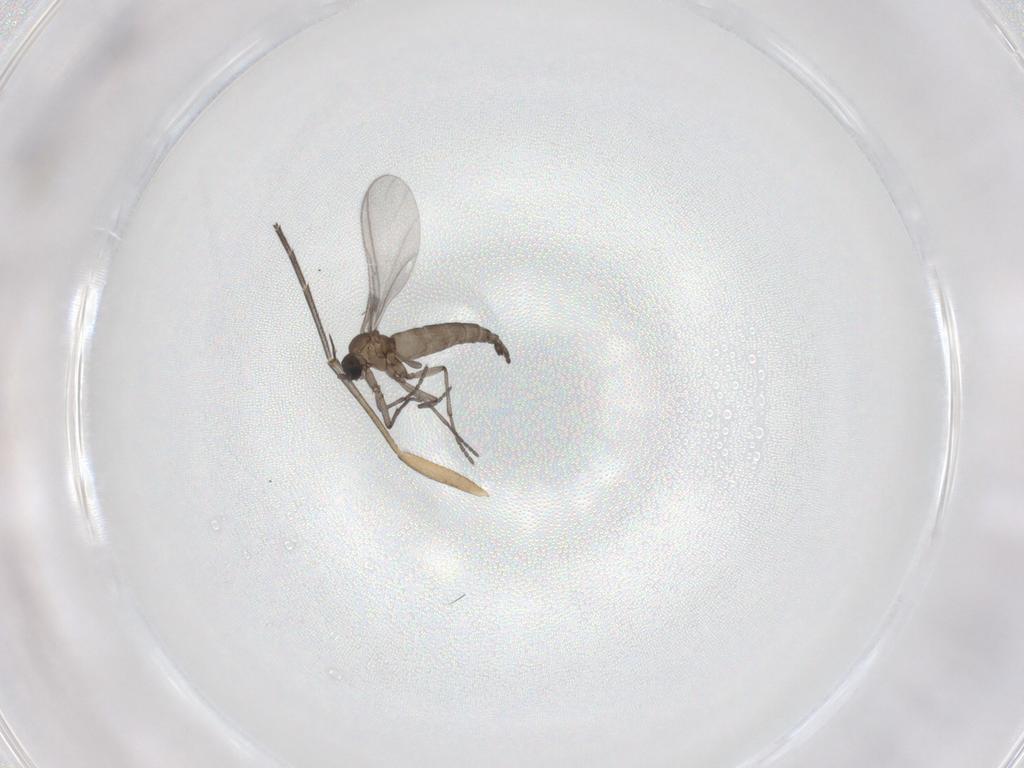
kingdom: Animalia
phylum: Arthropoda
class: Insecta
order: Diptera
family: Sciaridae
